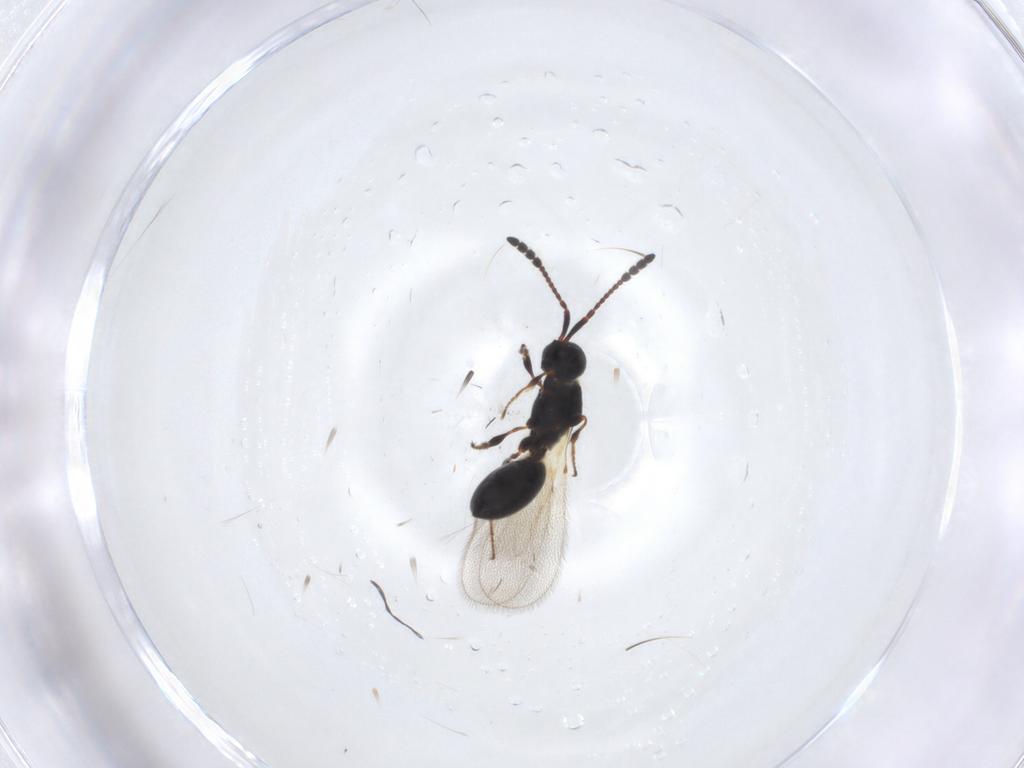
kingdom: Animalia
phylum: Arthropoda
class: Insecta
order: Hymenoptera
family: Diapriidae
